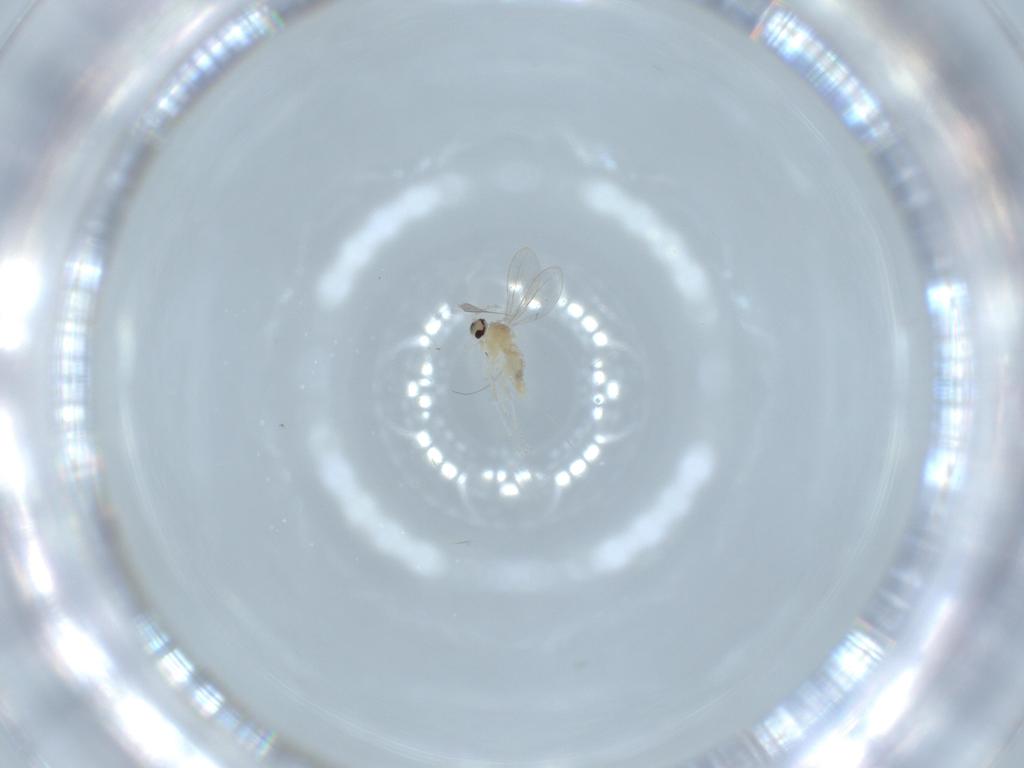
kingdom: Animalia
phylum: Arthropoda
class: Insecta
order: Diptera
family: Cecidomyiidae
